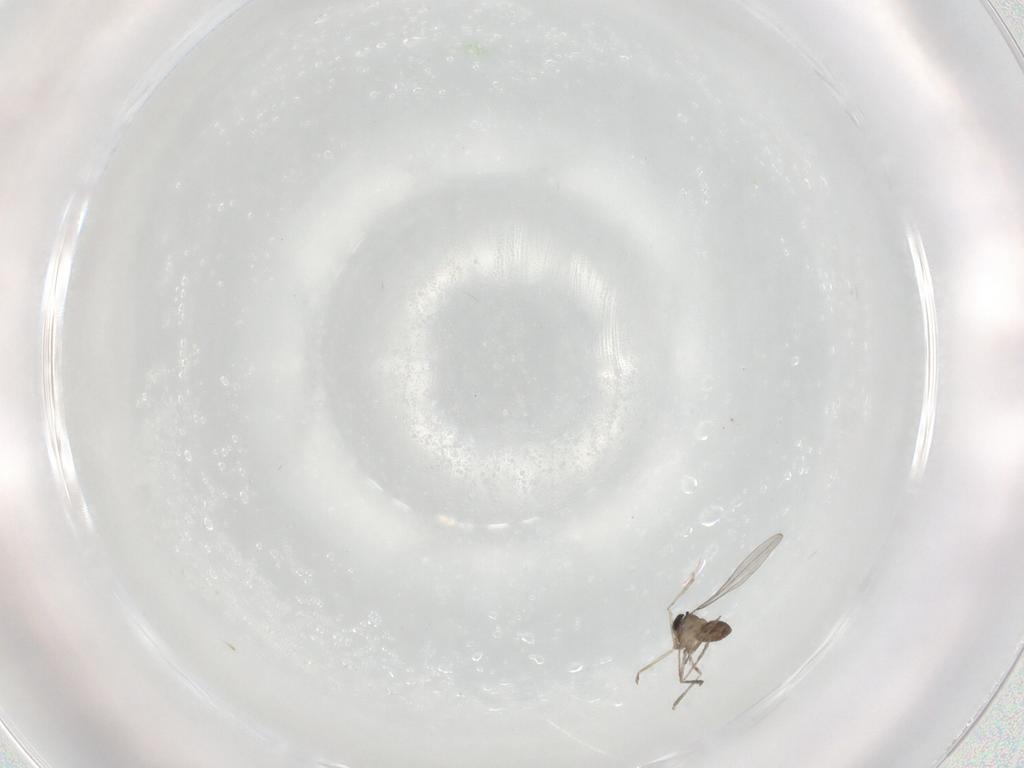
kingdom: Animalia
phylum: Arthropoda
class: Insecta
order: Diptera
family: Cecidomyiidae
